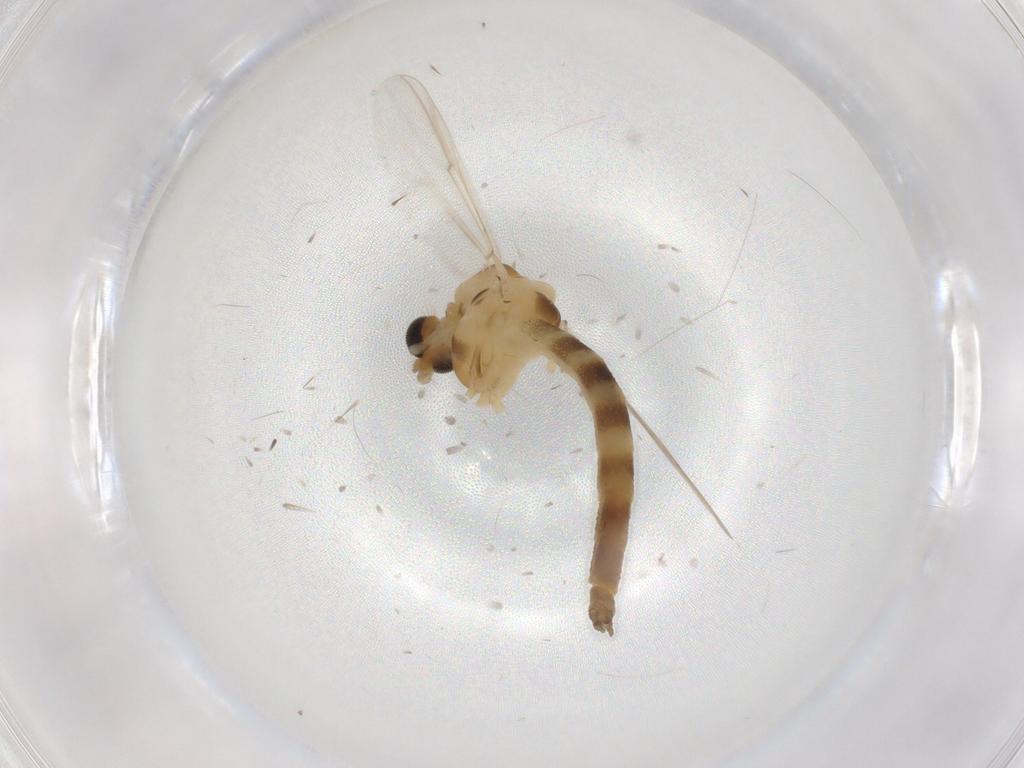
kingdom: Animalia
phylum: Arthropoda
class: Insecta
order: Diptera
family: Chironomidae
